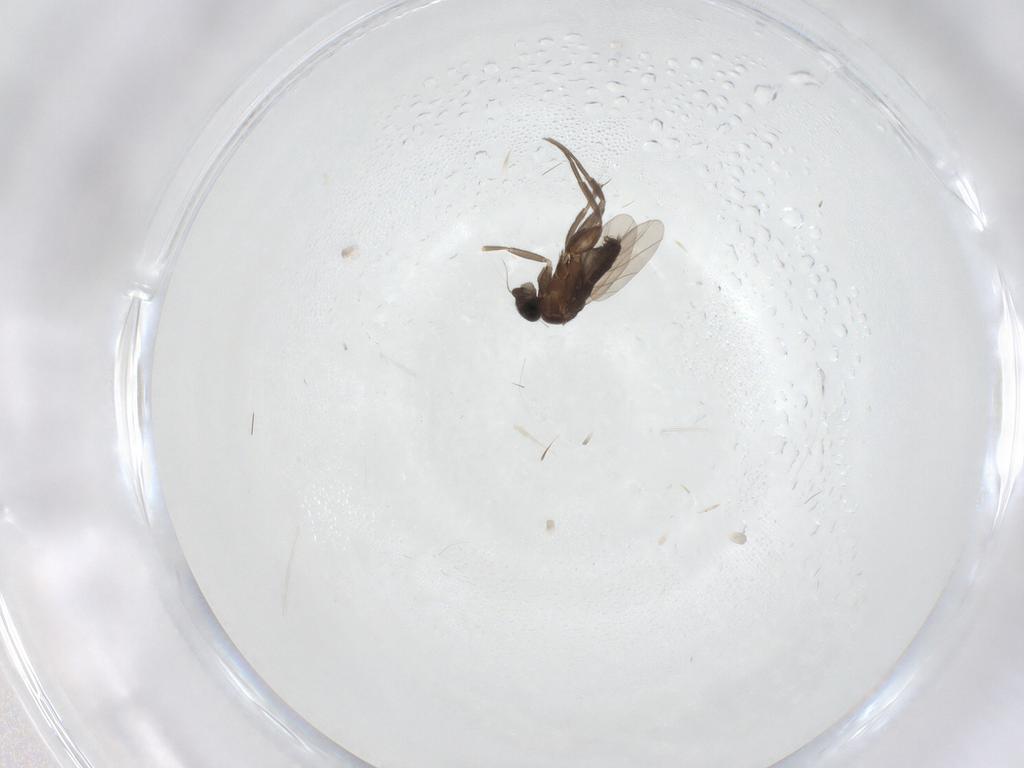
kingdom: Animalia
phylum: Arthropoda
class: Insecta
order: Diptera
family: Phoridae
